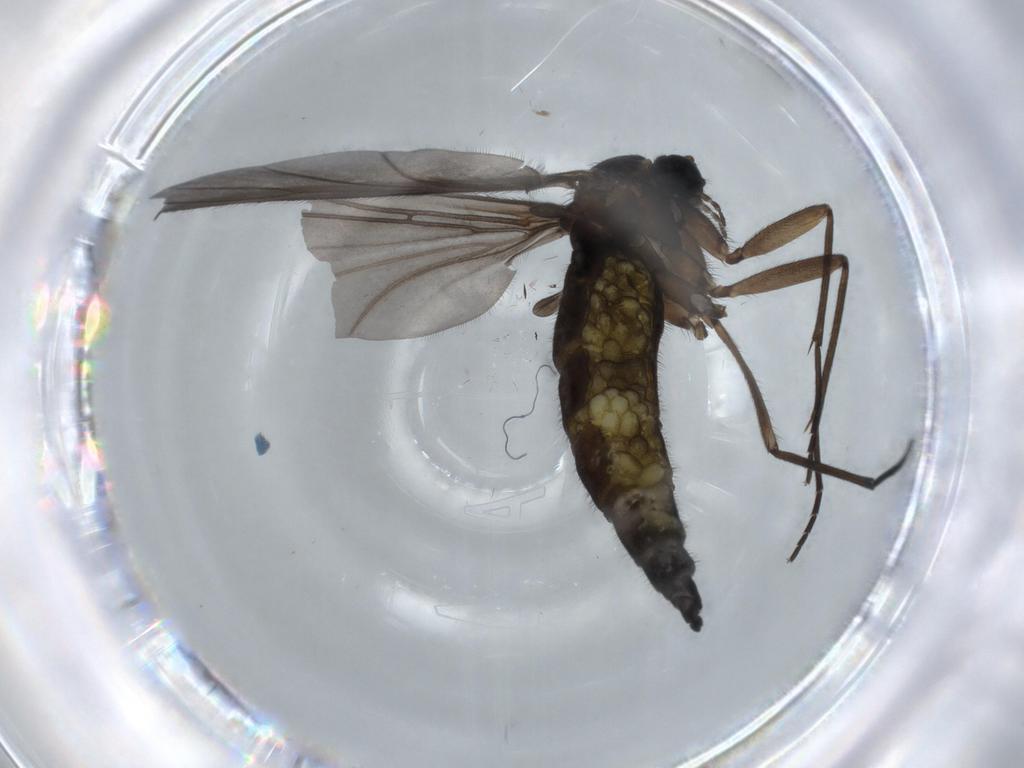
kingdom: Animalia
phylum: Arthropoda
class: Insecta
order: Diptera
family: Sciaridae
